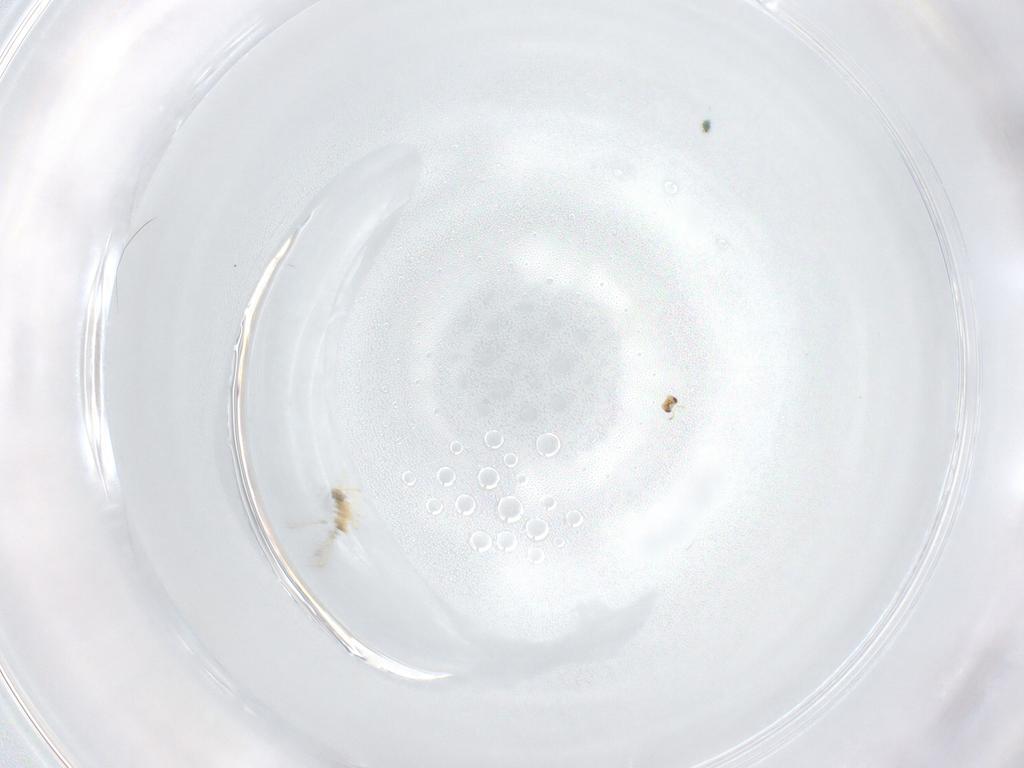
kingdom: Animalia
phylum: Arthropoda
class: Insecta
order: Hymenoptera
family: Mymaridae
